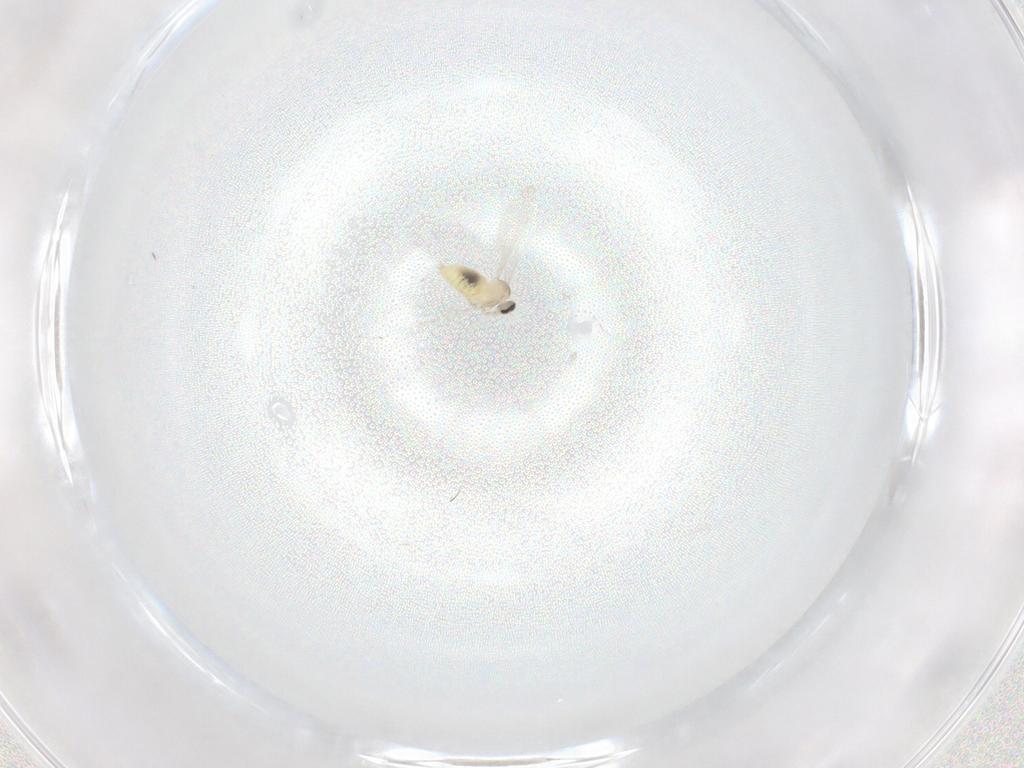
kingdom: Animalia
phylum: Arthropoda
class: Insecta
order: Diptera
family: Cecidomyiidae
